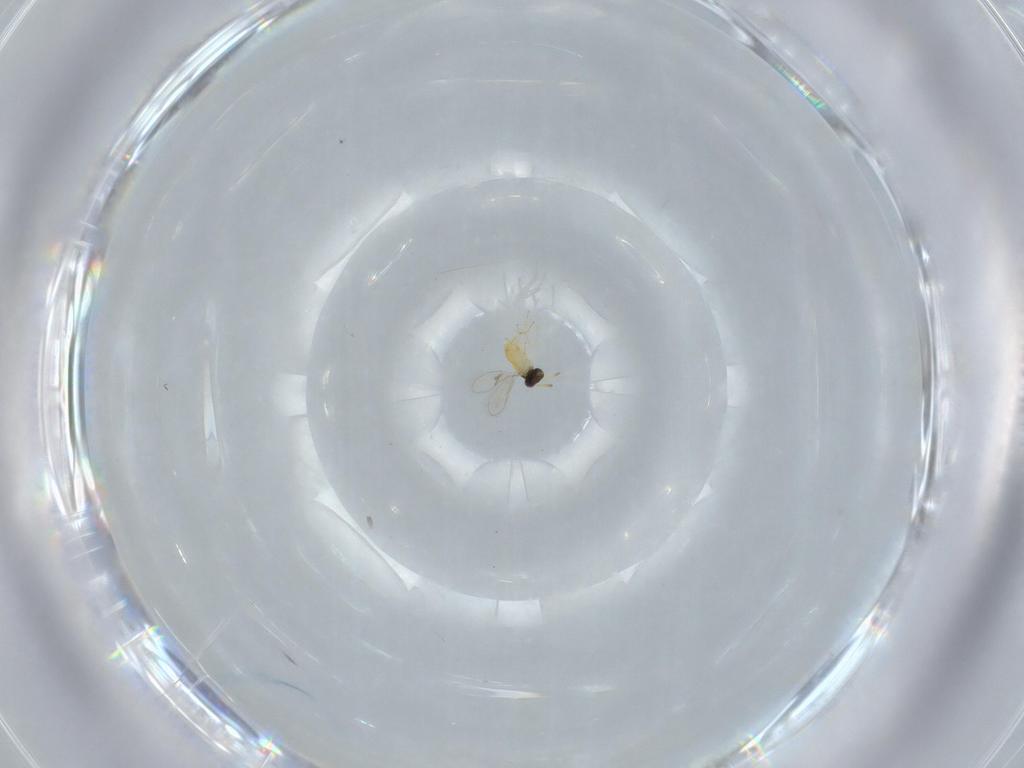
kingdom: Animalia
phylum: Arthropoda
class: Insecta
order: Hymenoptera
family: Aphelinidae
